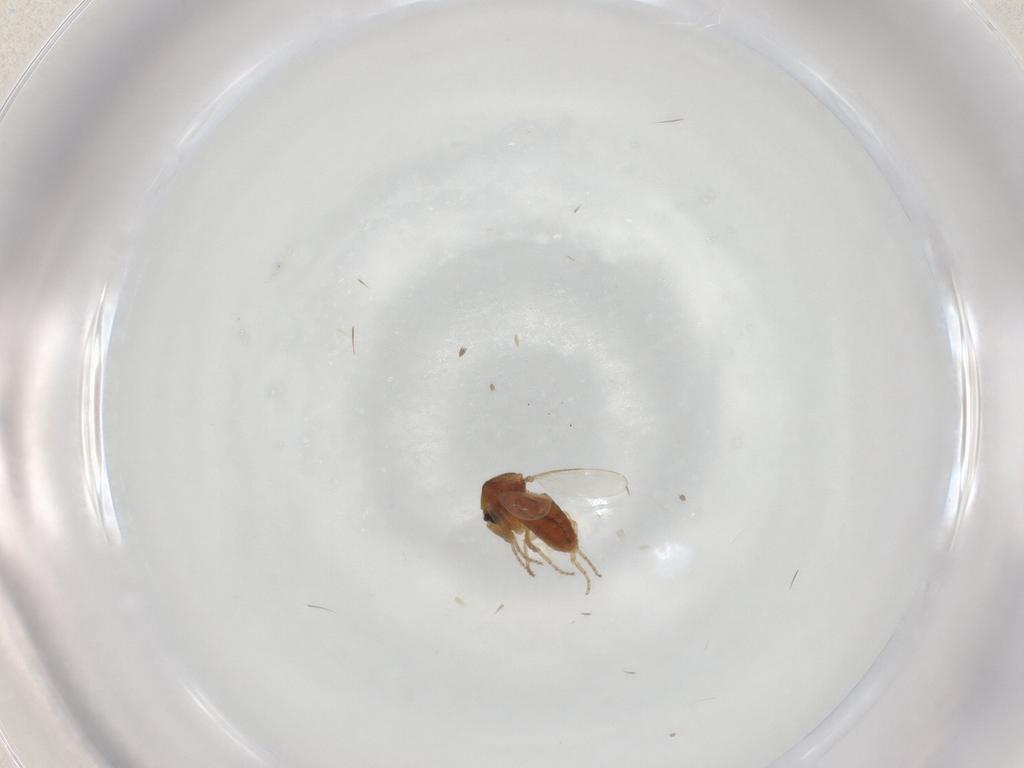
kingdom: Animalia
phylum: Arthropoda
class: Insecta
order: Diptera
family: Ceratopogonidae
